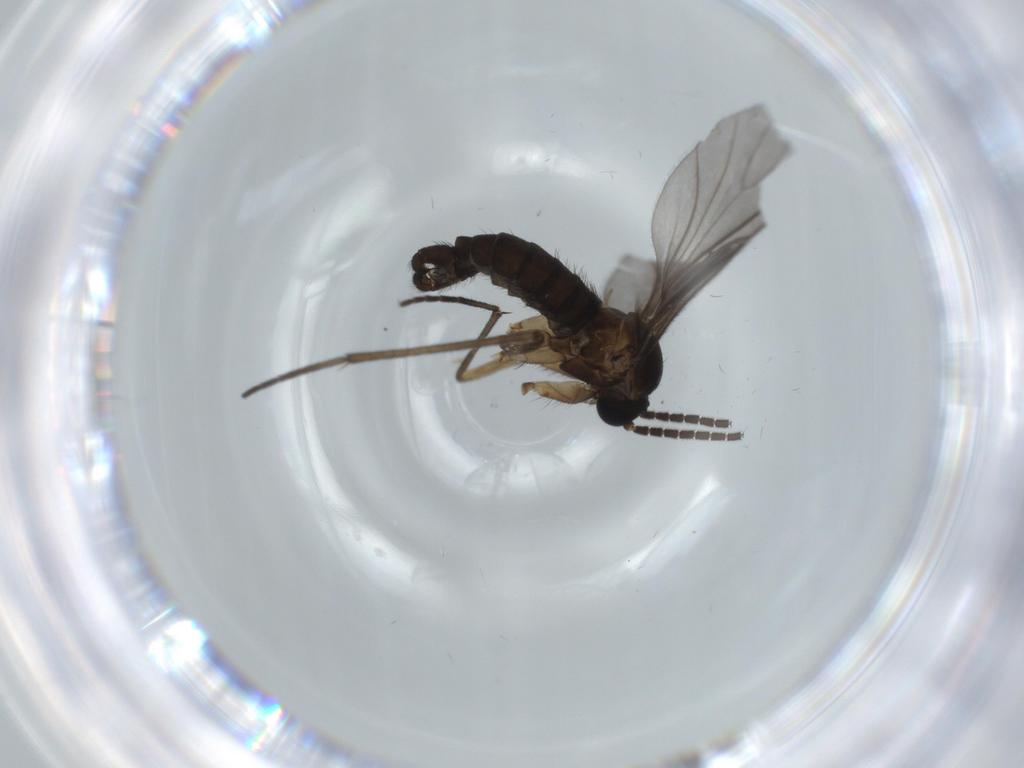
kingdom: Animalia
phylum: Arthropoda
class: Insecta
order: Diptera
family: Sciaridae
